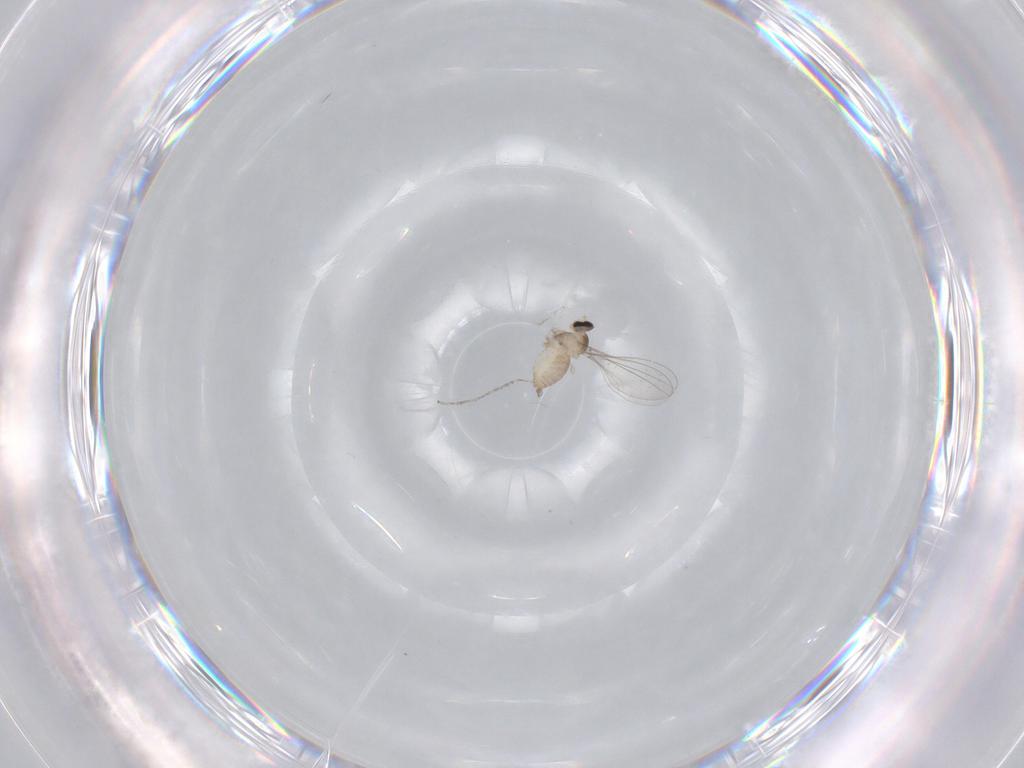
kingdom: Animalia
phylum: Arthropoda
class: Insecta
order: Diptera
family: Cecidomyiidae
